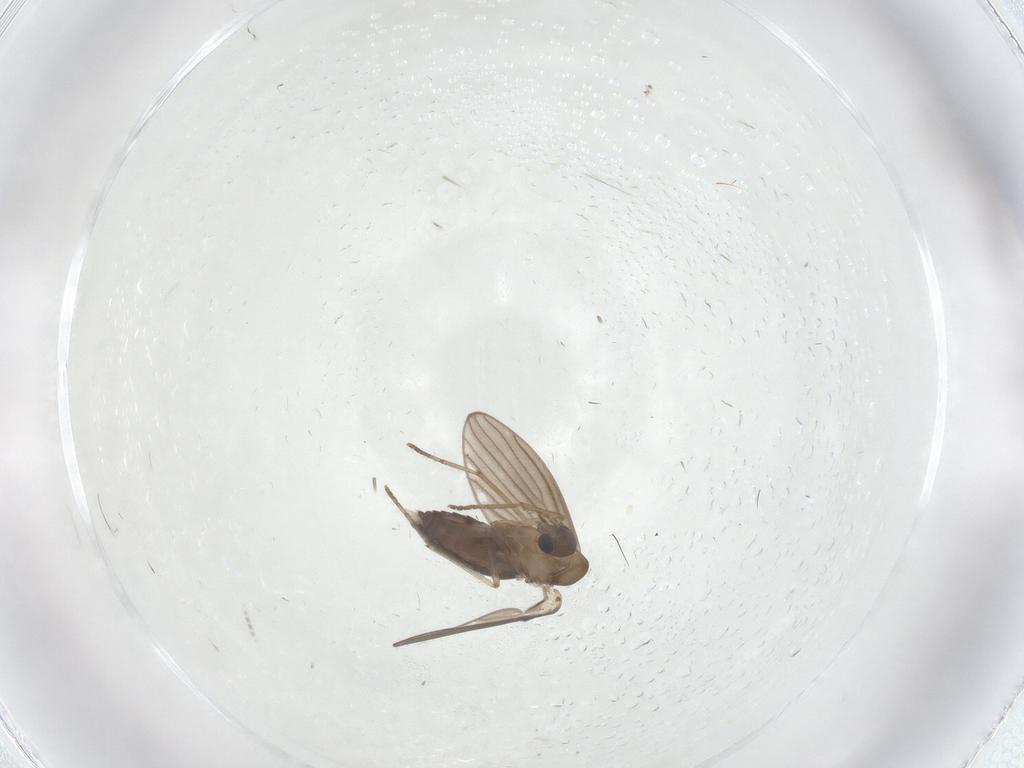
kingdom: Animalia
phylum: Arthropoda
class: Insecta
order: Diptera
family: Psychodidae
